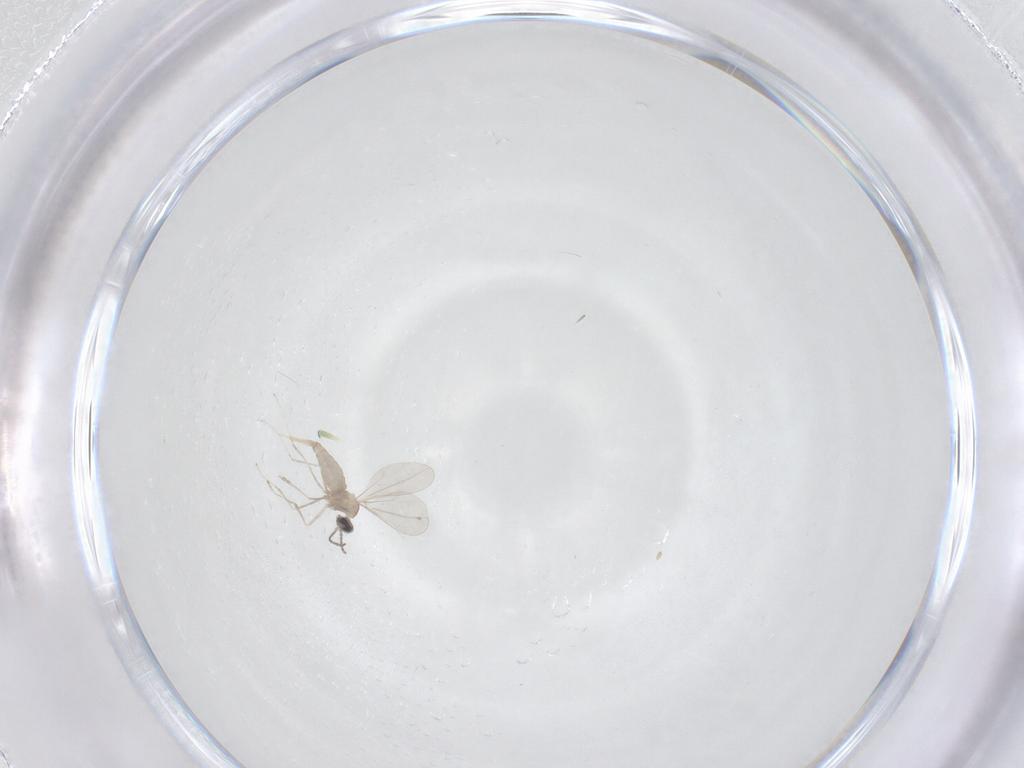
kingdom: Animalia
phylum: Arthropoda
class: Insecta
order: Diptera
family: Cecidomyiidae
